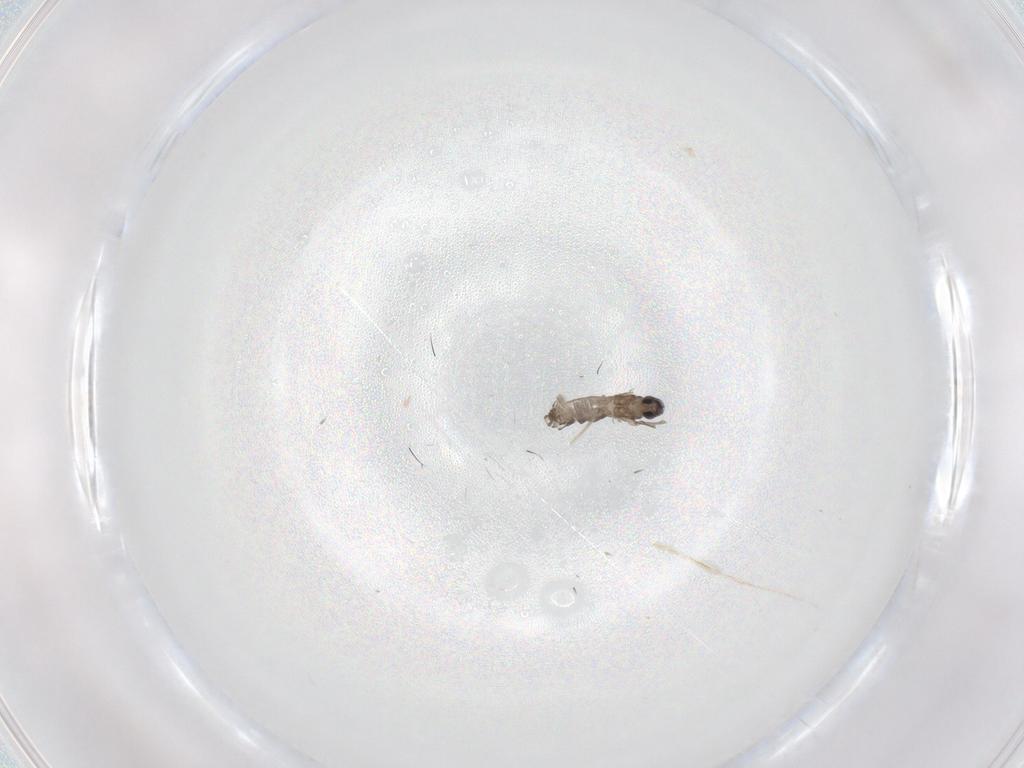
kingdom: Animalia
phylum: Arthropoda
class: Insecta
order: Diptera
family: Cecidomyiidae
